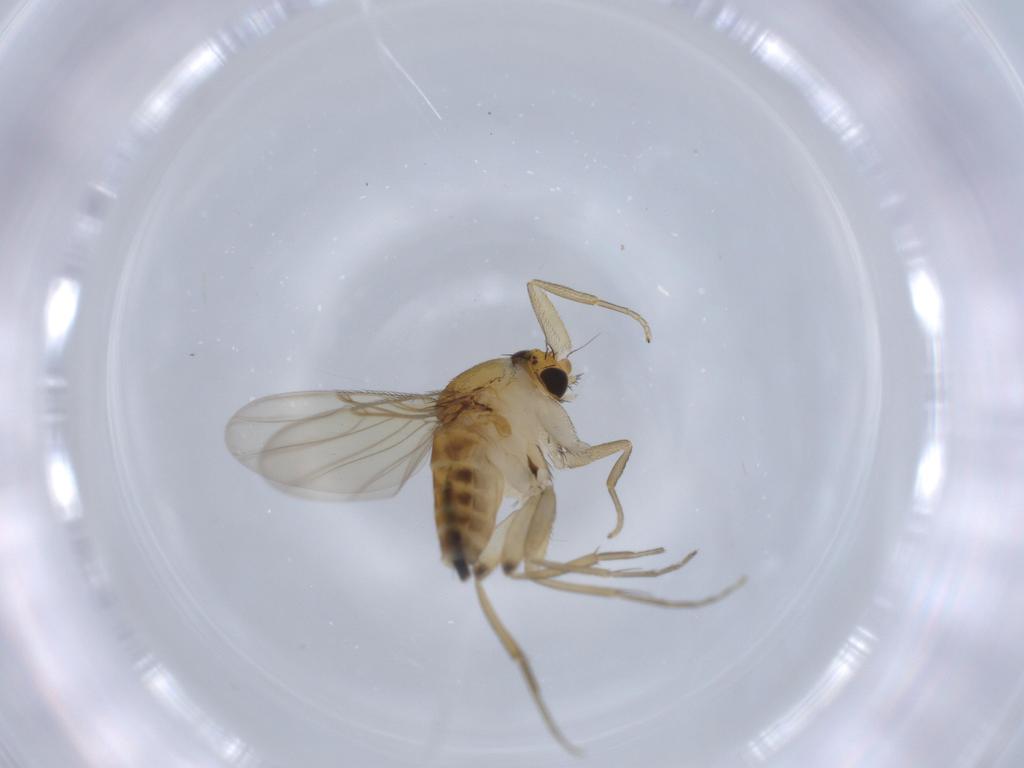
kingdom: Animalia
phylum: Arthropoda
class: Insecta
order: Diptera
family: Phoridae
